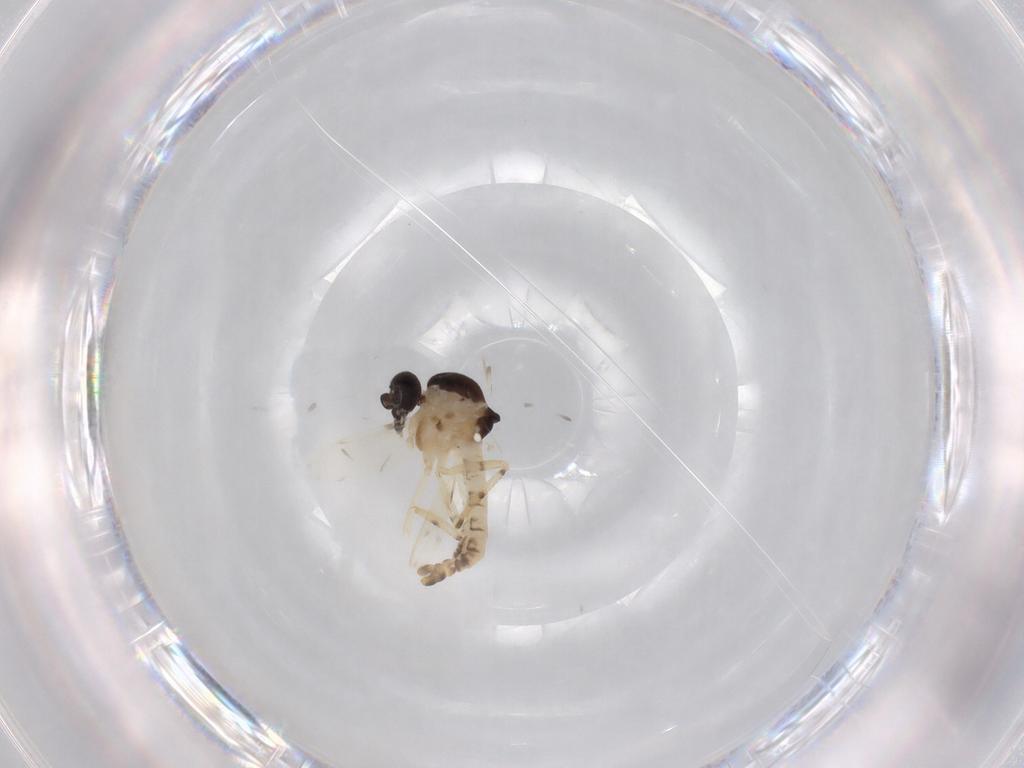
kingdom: Animalia
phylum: Arthropoda
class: Insecta
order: Diptera
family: Ceratopogonidae
